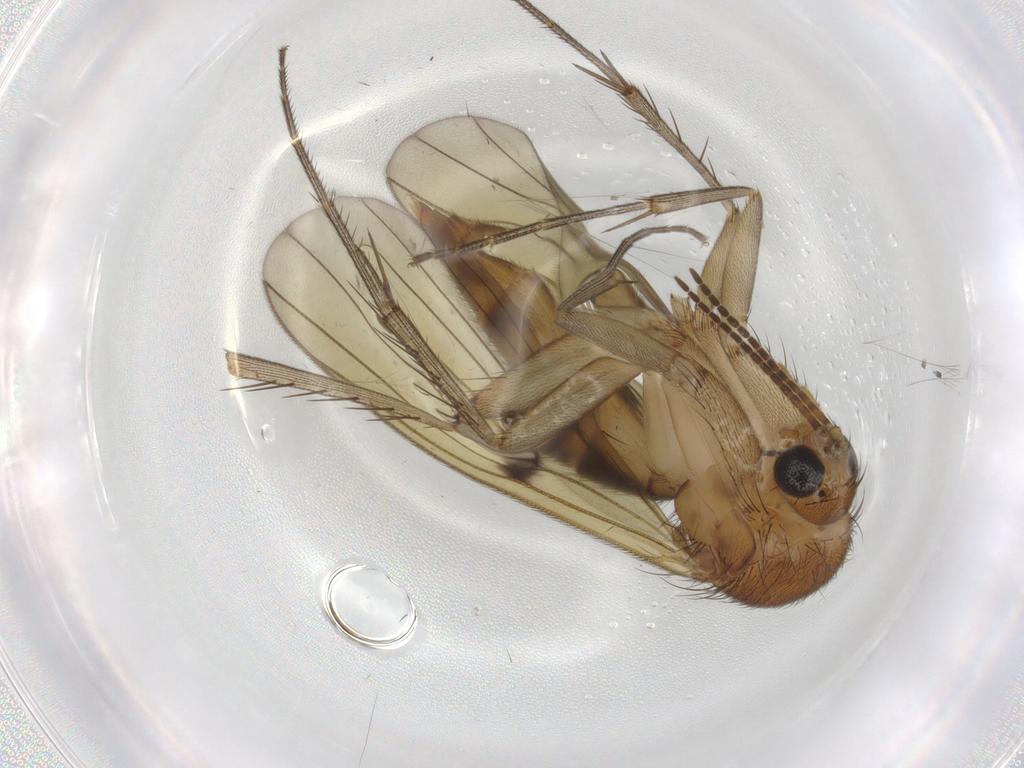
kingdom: Animalia
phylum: Arthropoda
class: Insecta
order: Diptera
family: Mycetophilidae
